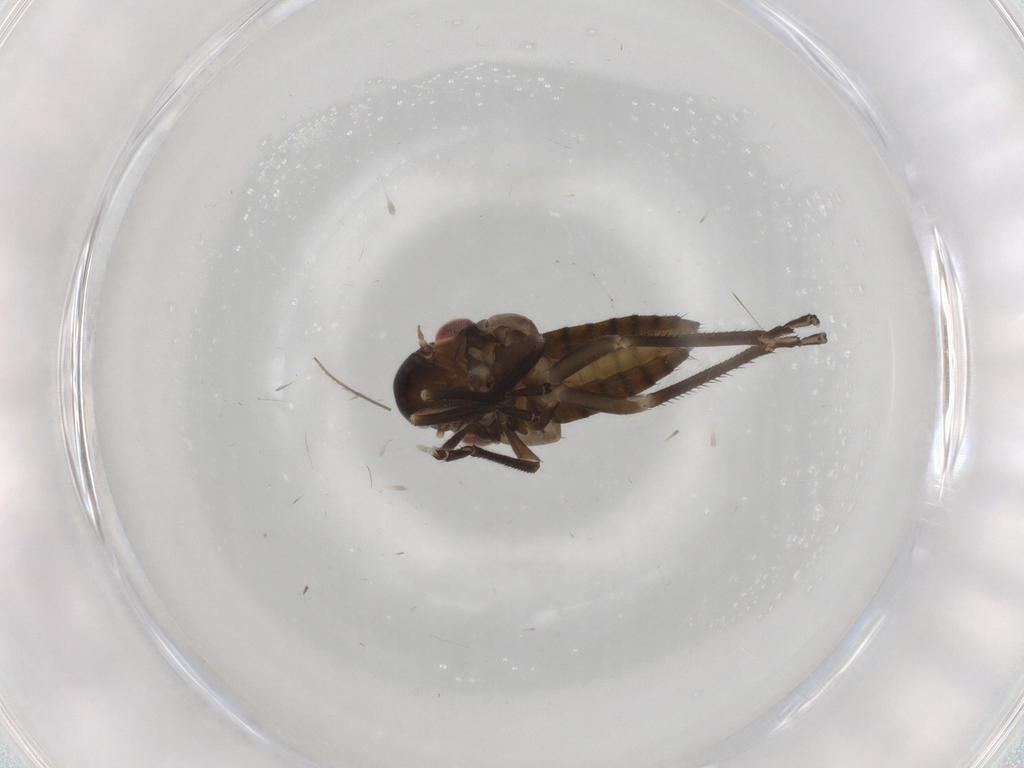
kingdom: Animalia
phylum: Arthropoda
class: Insecta
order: Hemiptera
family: Cicadellidae
